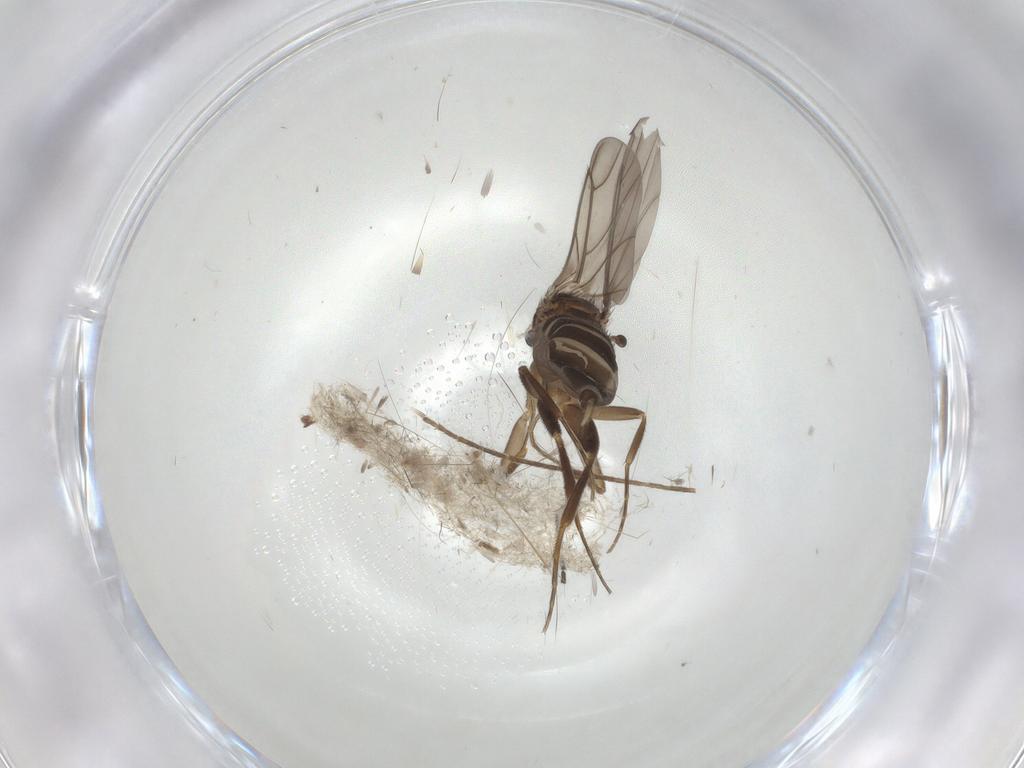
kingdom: Animalia
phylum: Arthropoda
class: Insecta
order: Diptera
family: Sciaridae
